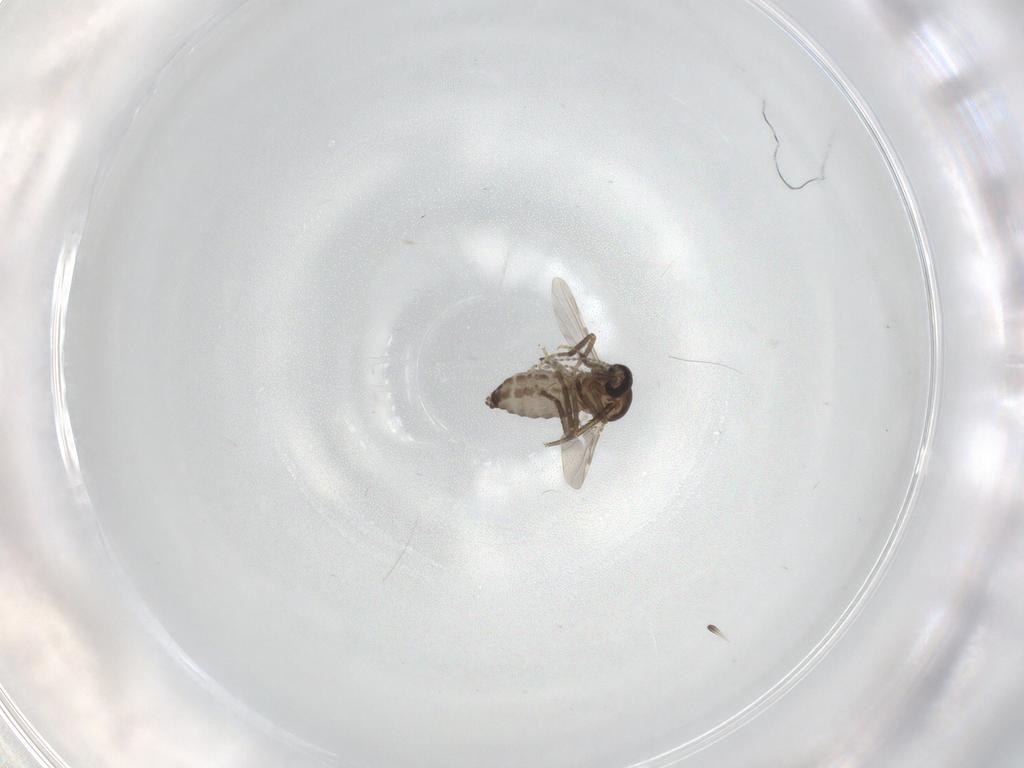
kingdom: Animalia
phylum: Arthropoda
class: Insecta
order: Diptera
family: Ceratopogonidae
